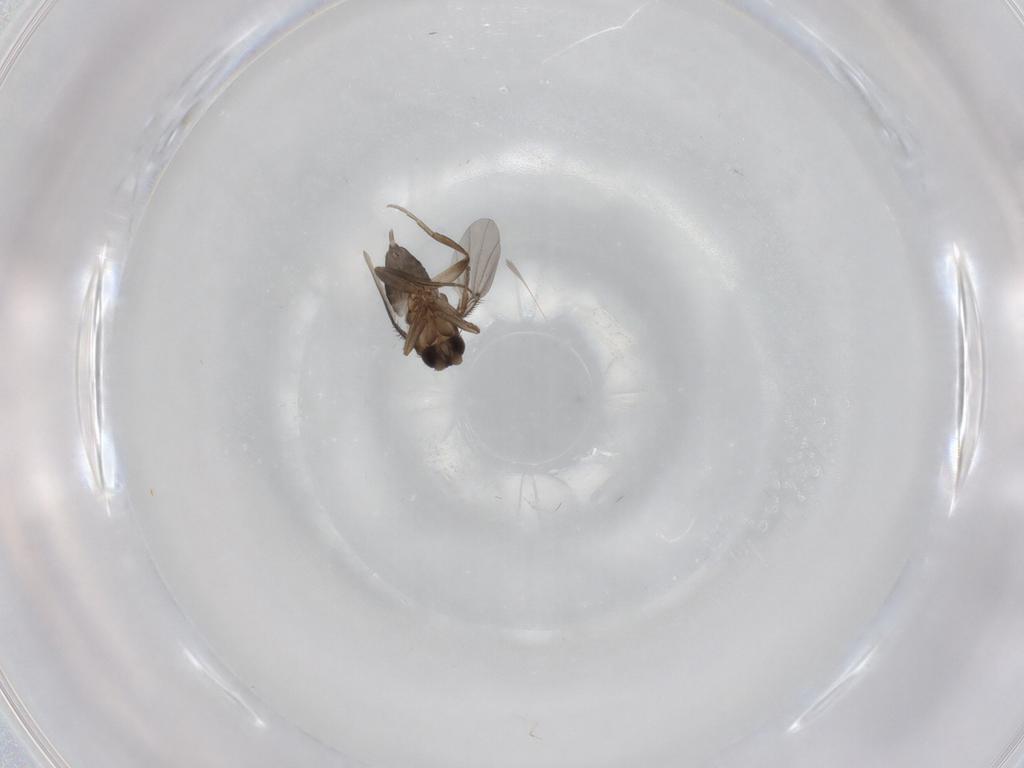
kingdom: Animalia
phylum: Arthropoda
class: Insecta
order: Diptera
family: Phoridae
